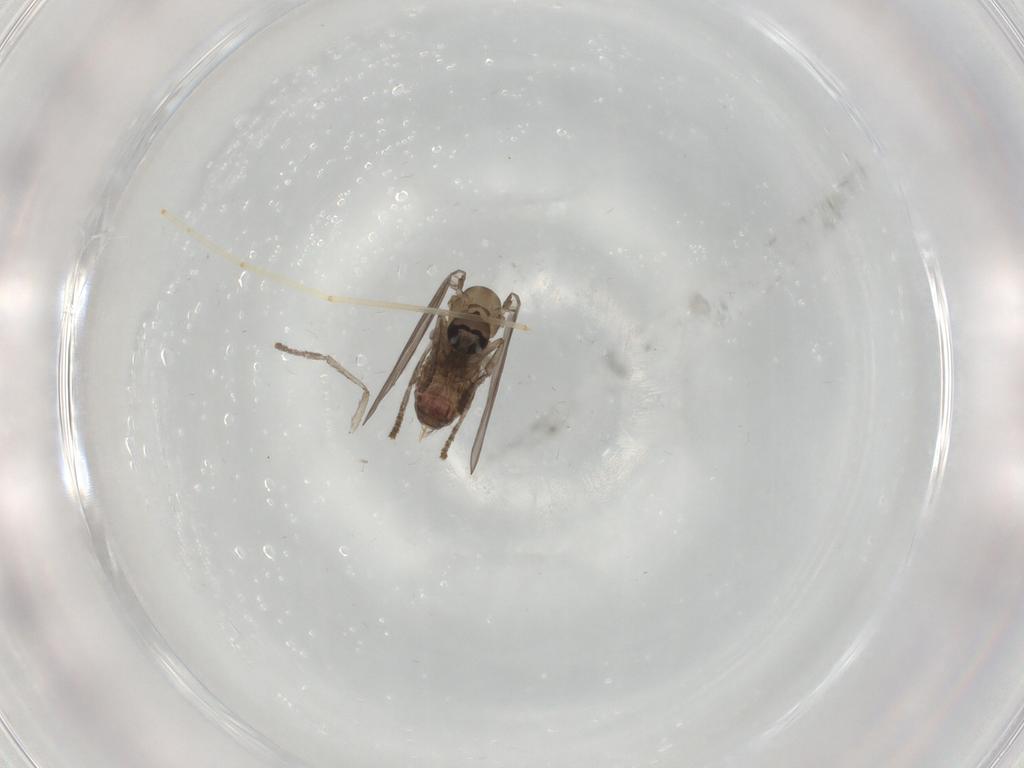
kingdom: Animalia
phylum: Arthropoda
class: Insecta
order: Diptera
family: Psychodidae
